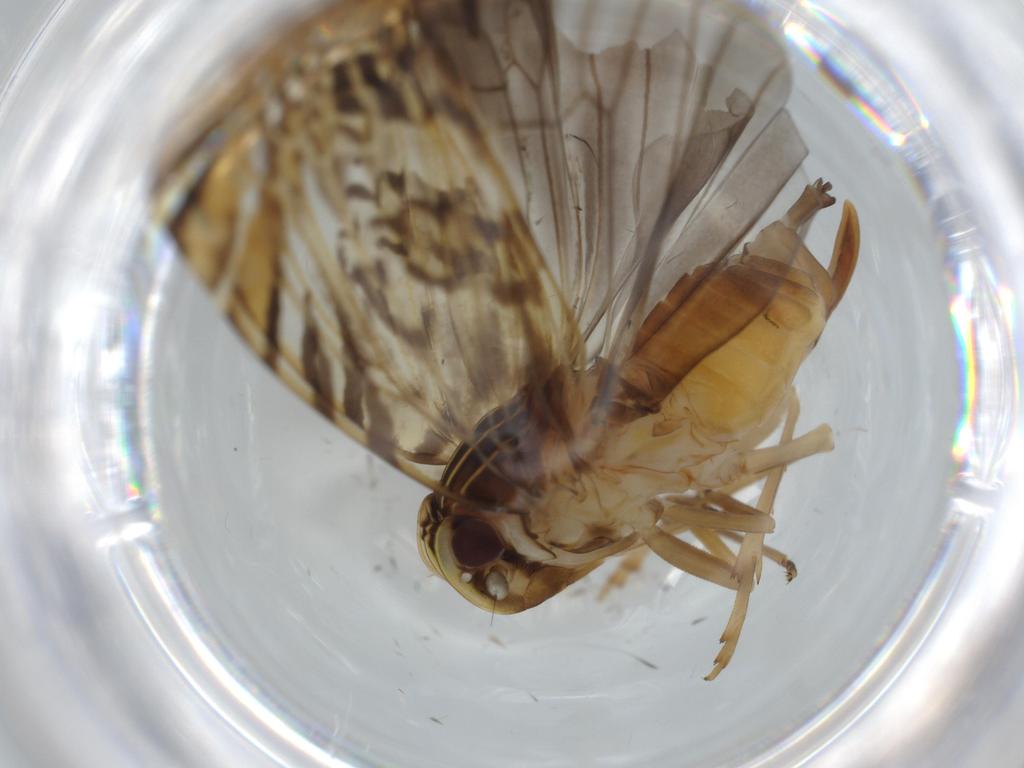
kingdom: Animalia
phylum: Arthropoda
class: Insecta
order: Hemiptera
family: Cixiidae
